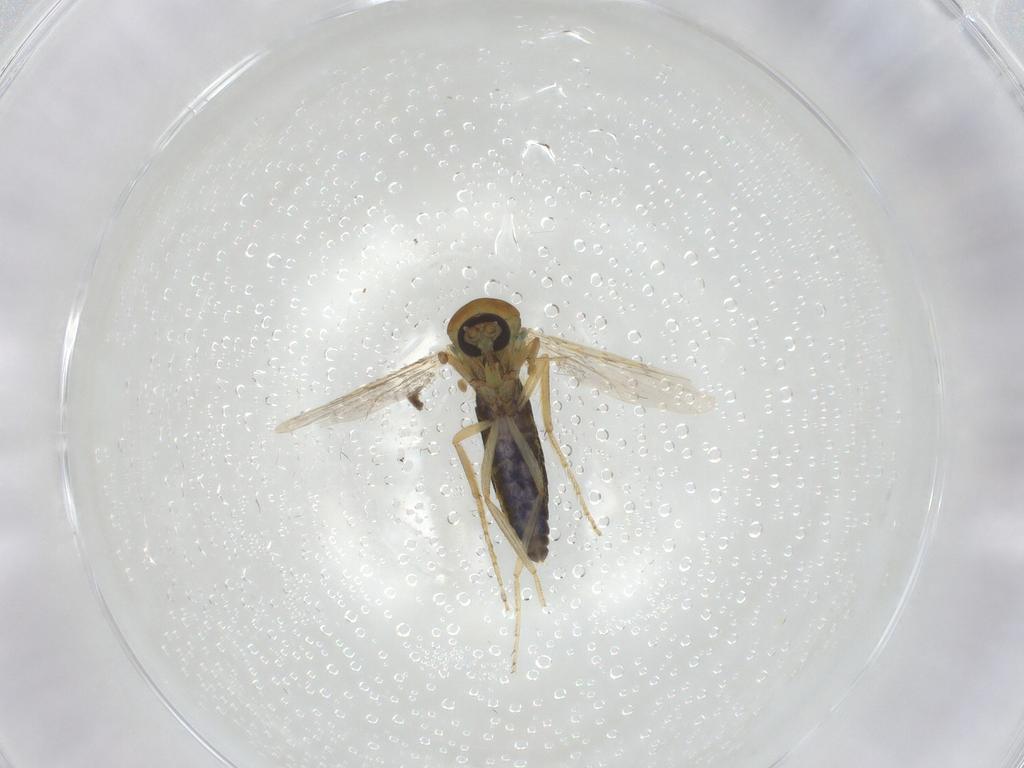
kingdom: Animalia
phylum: Arthropoda
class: Insecta
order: Diptera
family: Ceratopogonidae
